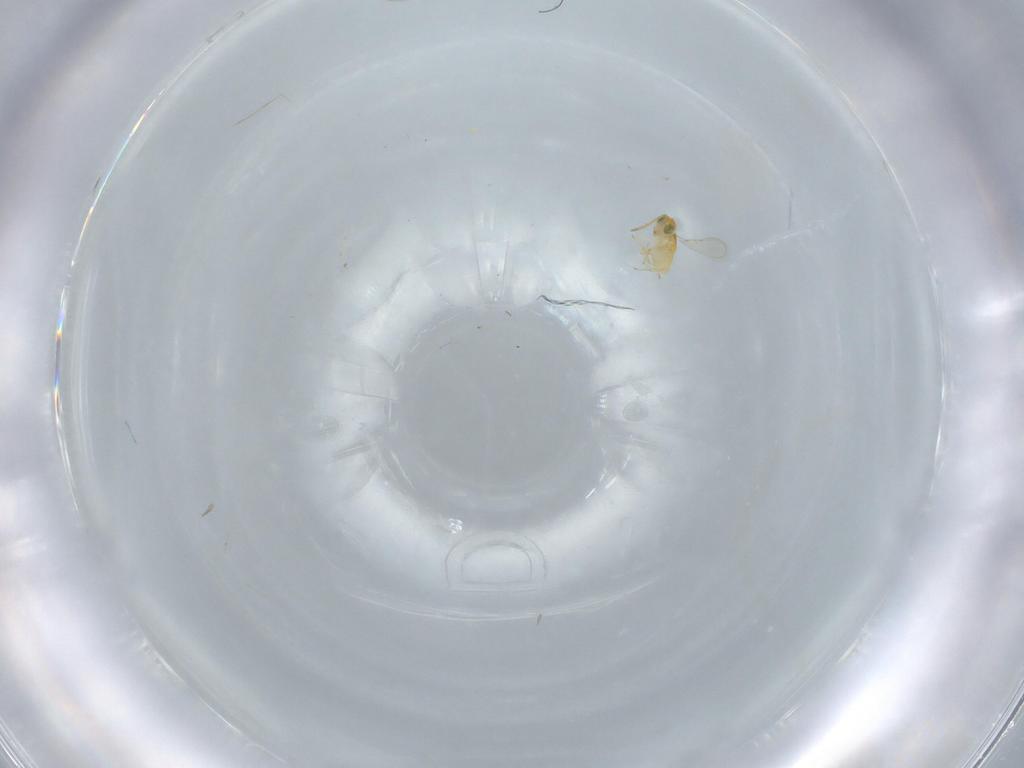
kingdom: Animalia
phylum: Arthropoda
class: Insecta
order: Hymenoptera
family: Aphelinidae
